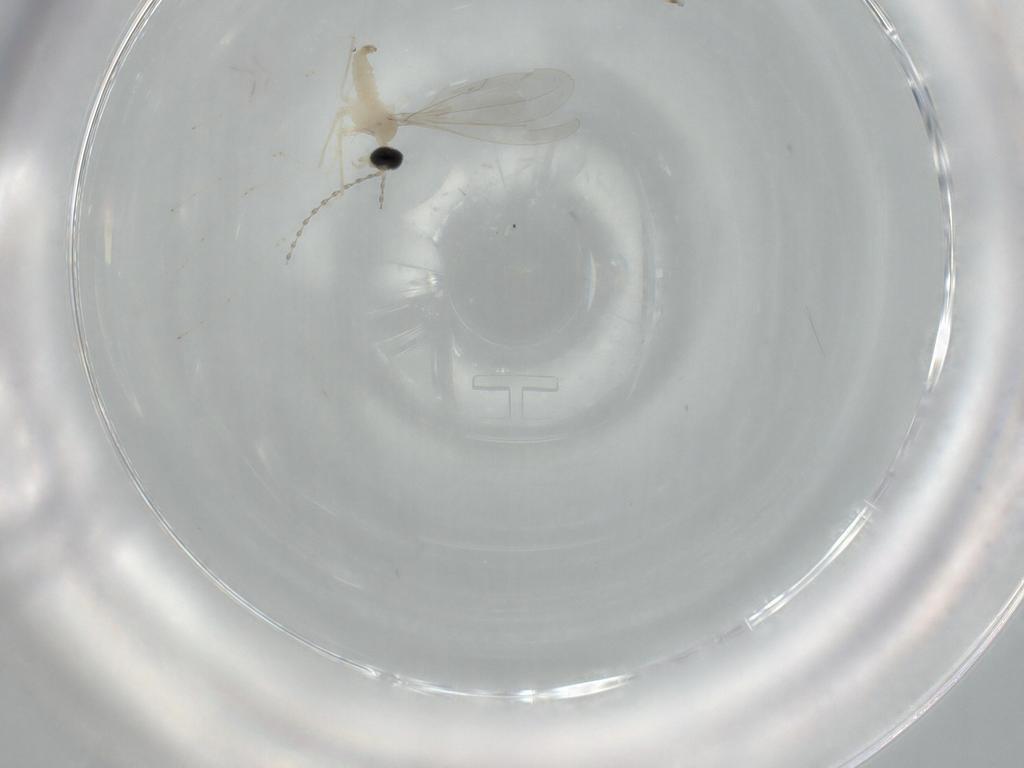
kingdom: Animalia
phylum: Arthropoda
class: Insecta
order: Diptera
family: Cecidomyiidae
